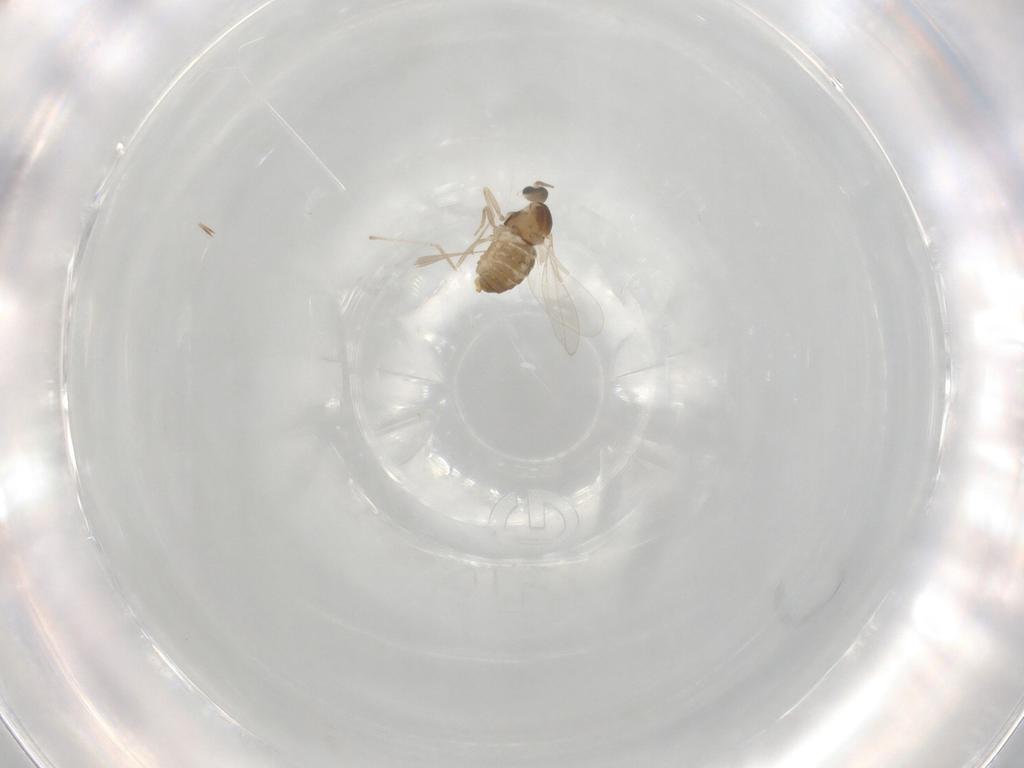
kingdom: Animalia
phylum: Arthropoda
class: Insecta
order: Diptera
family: Cecidomyiidae
